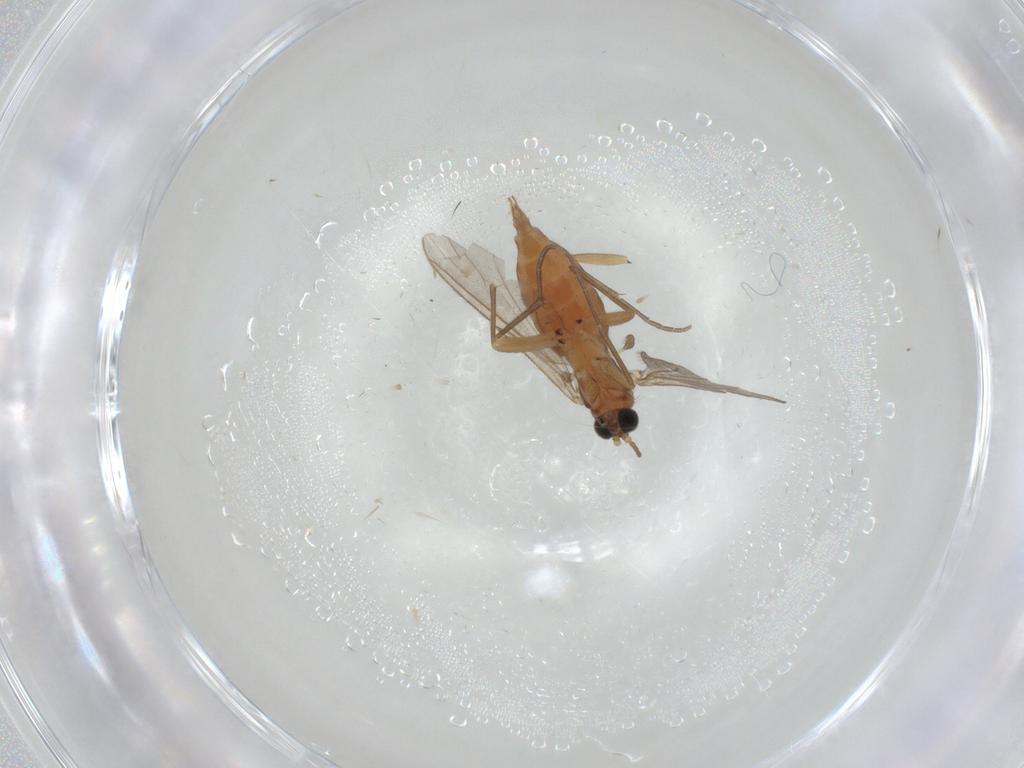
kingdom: Animalia
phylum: Arthropoda
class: Insecta
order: Diptera
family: Sciaridae
